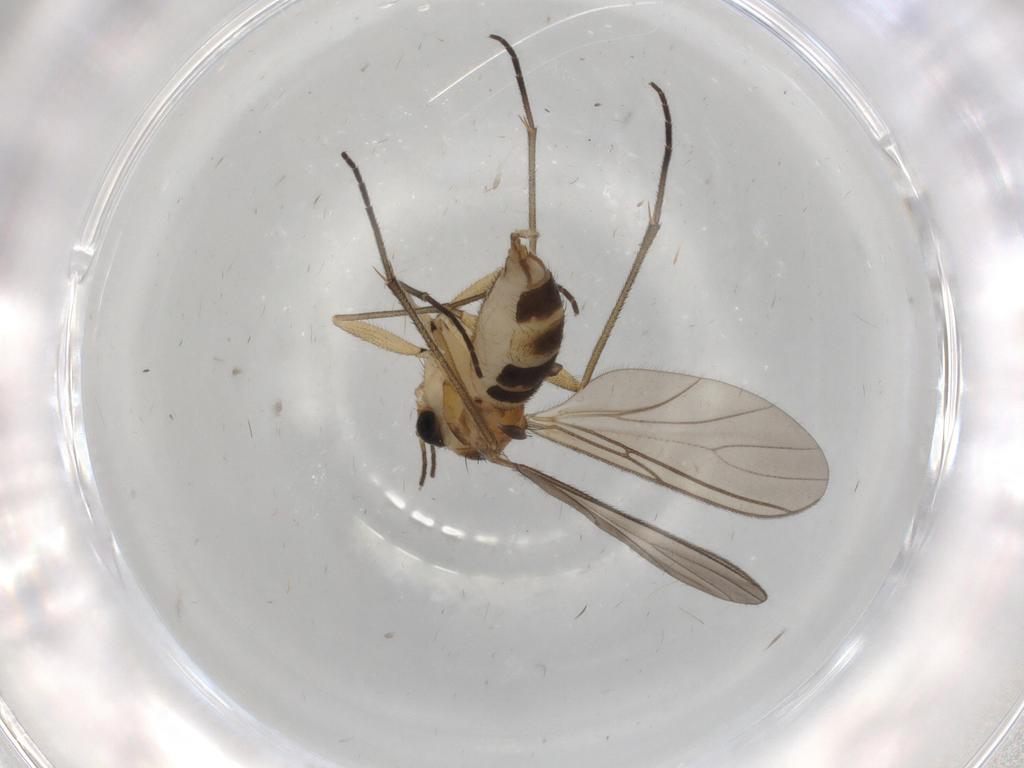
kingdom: Animalia
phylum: Arthropoda
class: Insecta
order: Diptera
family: Sciaridae
